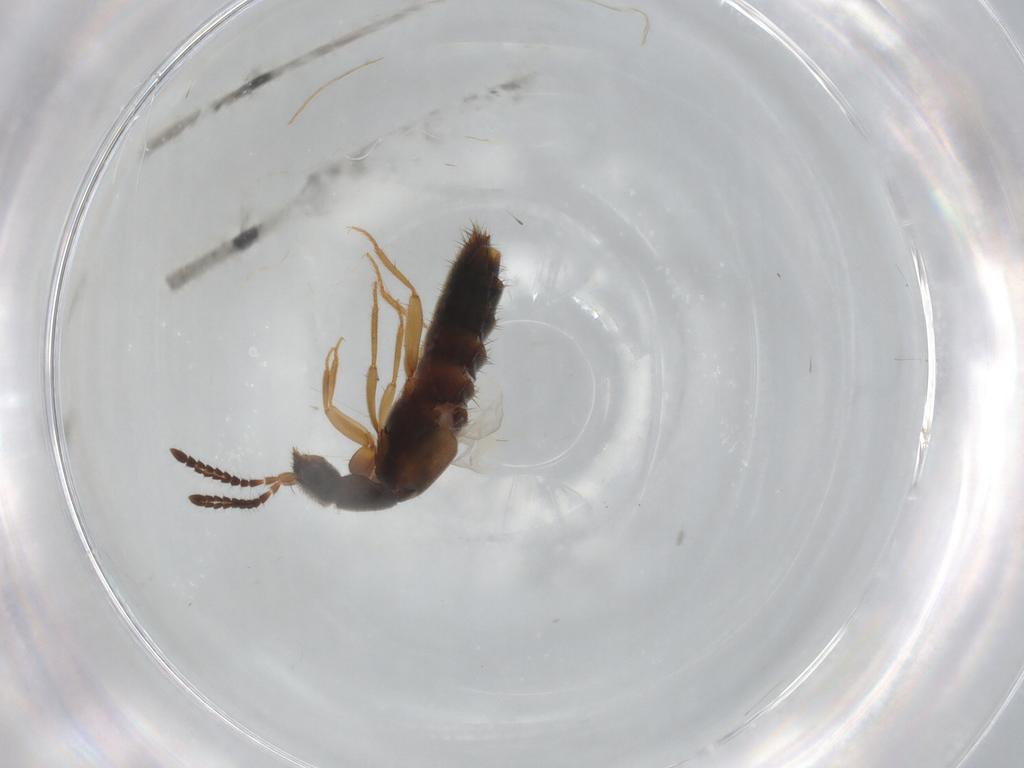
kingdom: Animalia
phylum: Arthropoda
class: Insecta
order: Coleoptera
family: Staphylinidae
